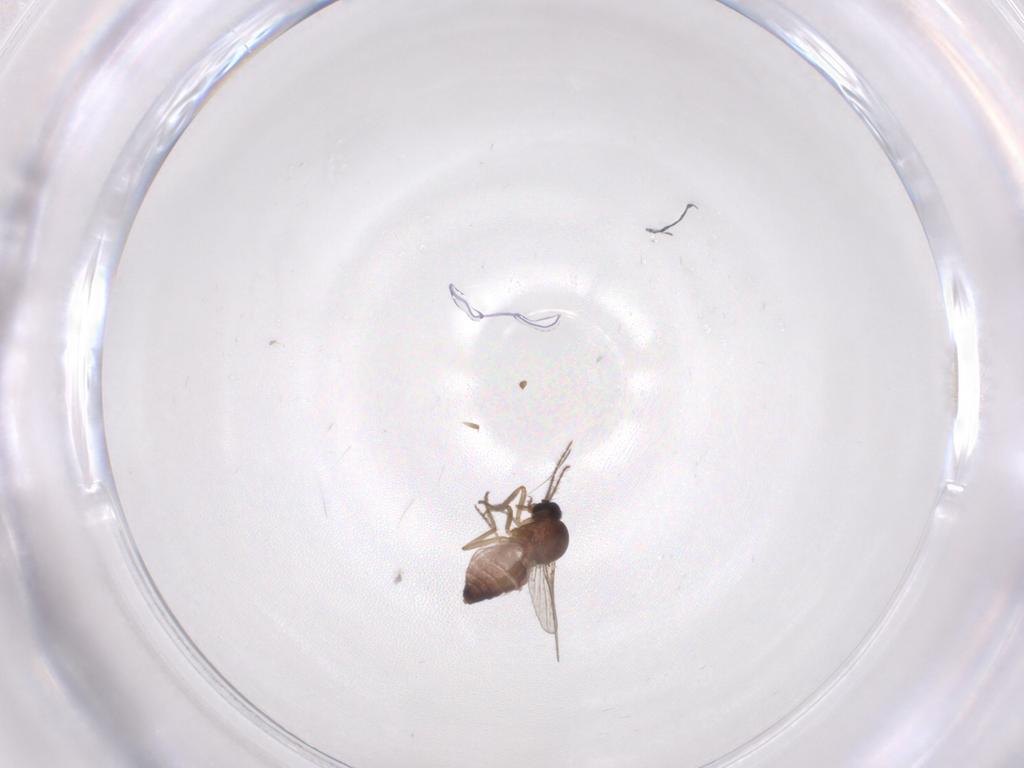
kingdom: Animalia
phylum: Arthropoda
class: Insecta
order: Diptera
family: Ceratopogonidae
